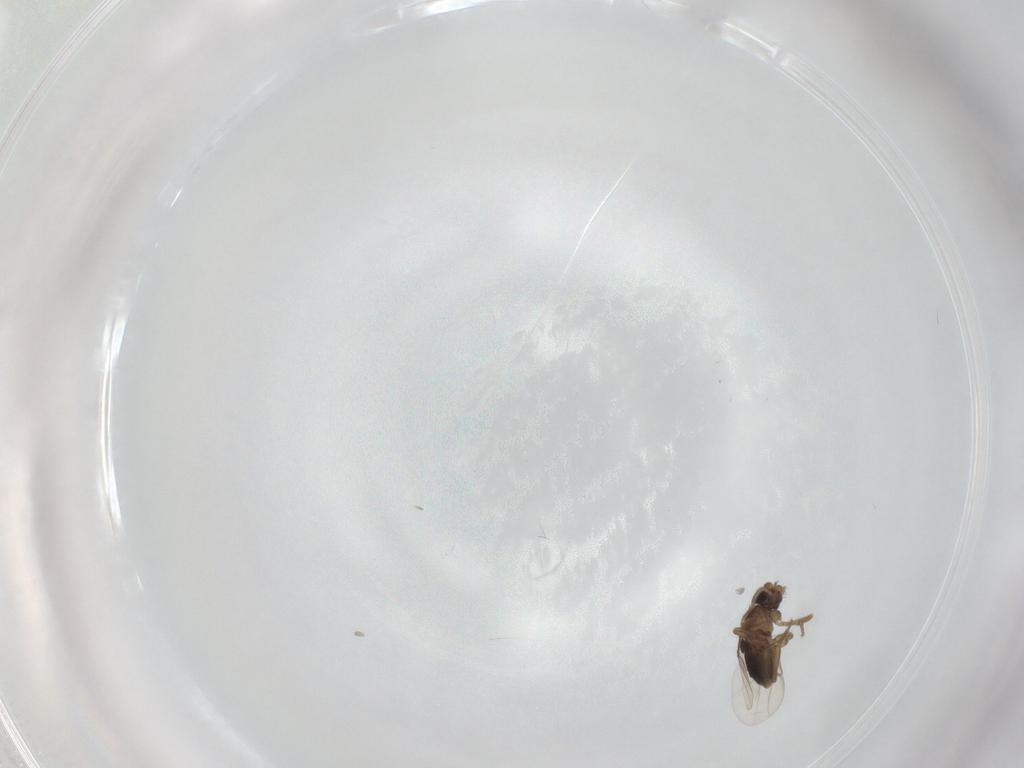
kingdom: Animalia
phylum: Arthropoda
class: Insecta
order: Diptera
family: Phoridae
